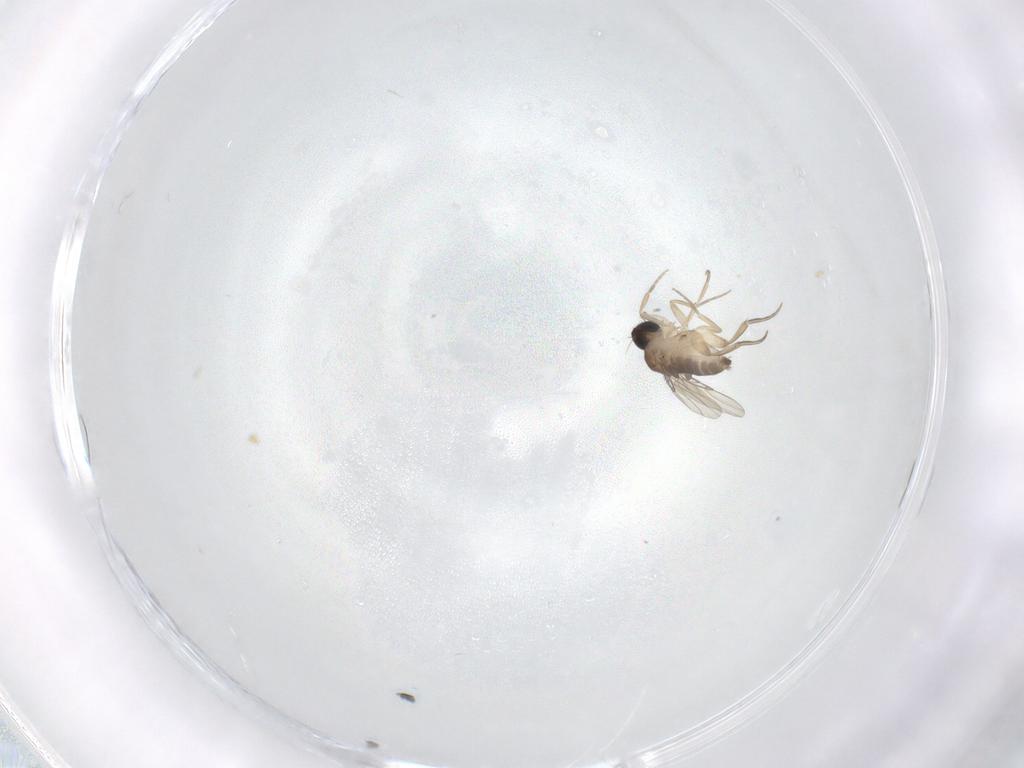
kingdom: Animalia
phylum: Arthropoda
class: Insecta
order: Diptera
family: Phoridae
